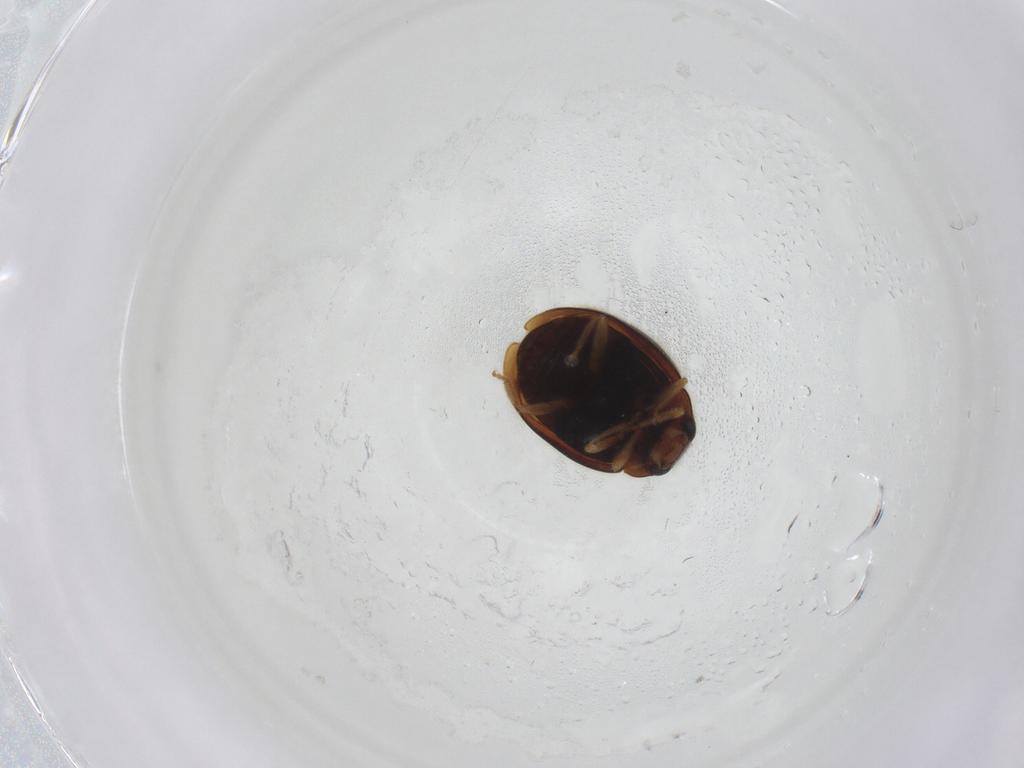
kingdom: Animalia
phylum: Arthropoda
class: Insecta
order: Coleoptera
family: Coccinellidae
